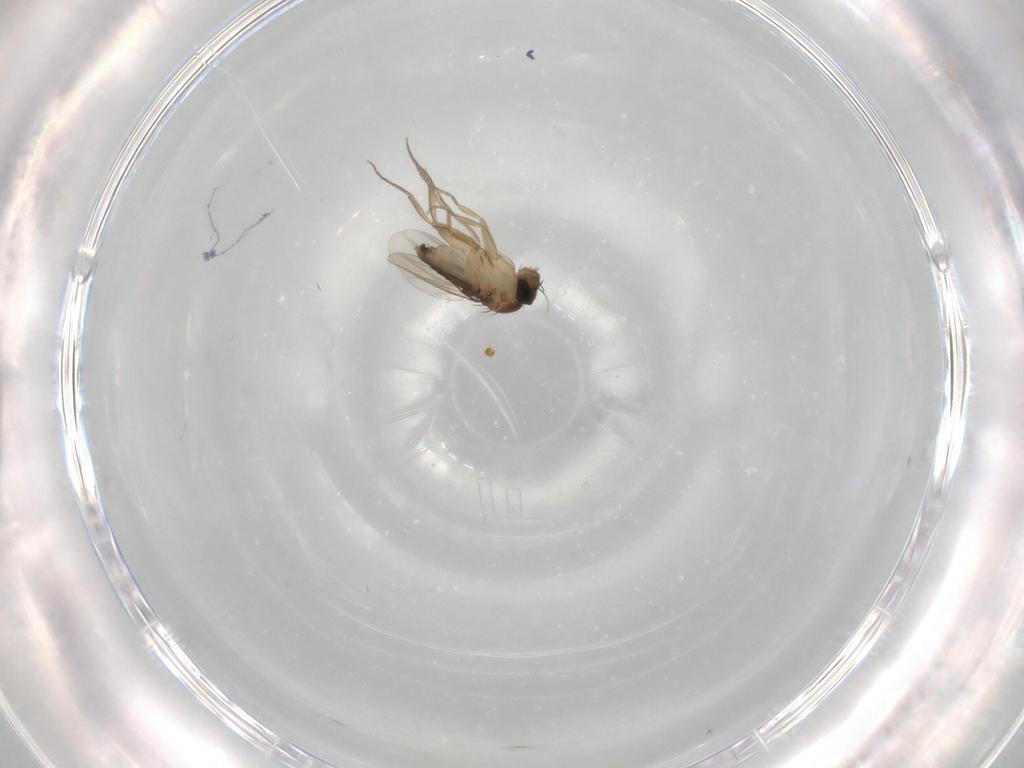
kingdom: Animalia
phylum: Arthropoda
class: Insecta
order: Diptera
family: Phoridae
